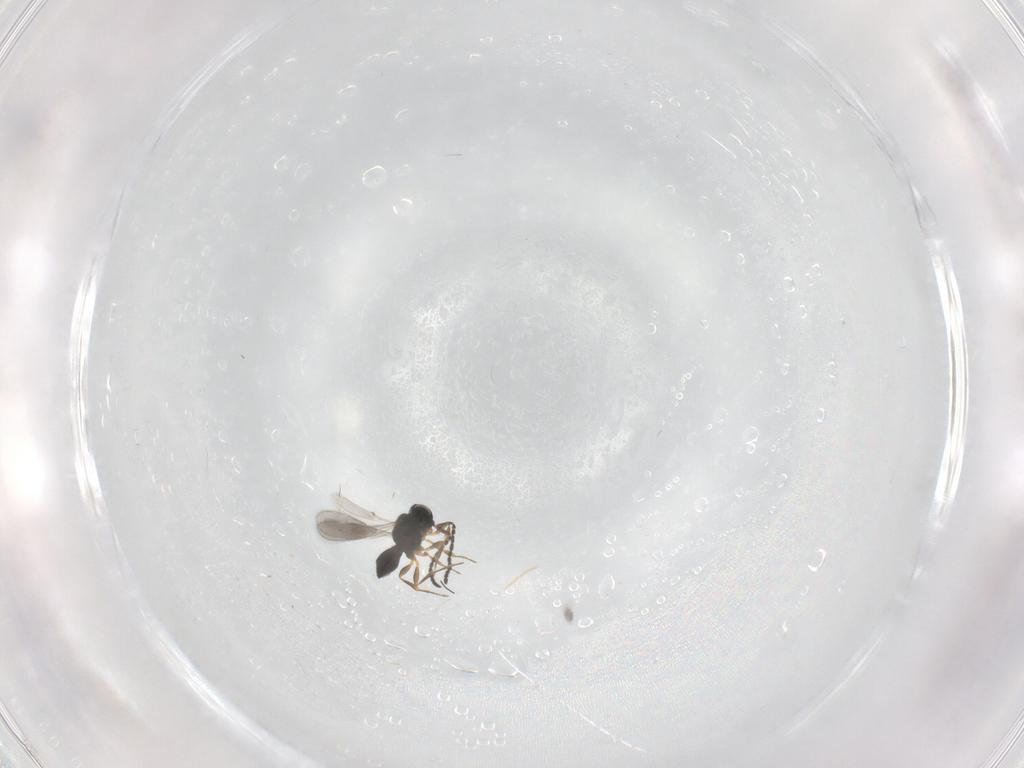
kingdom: Animalia
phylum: Arthropoda
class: Insecta
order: Hymenoptera
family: Scelionidae
